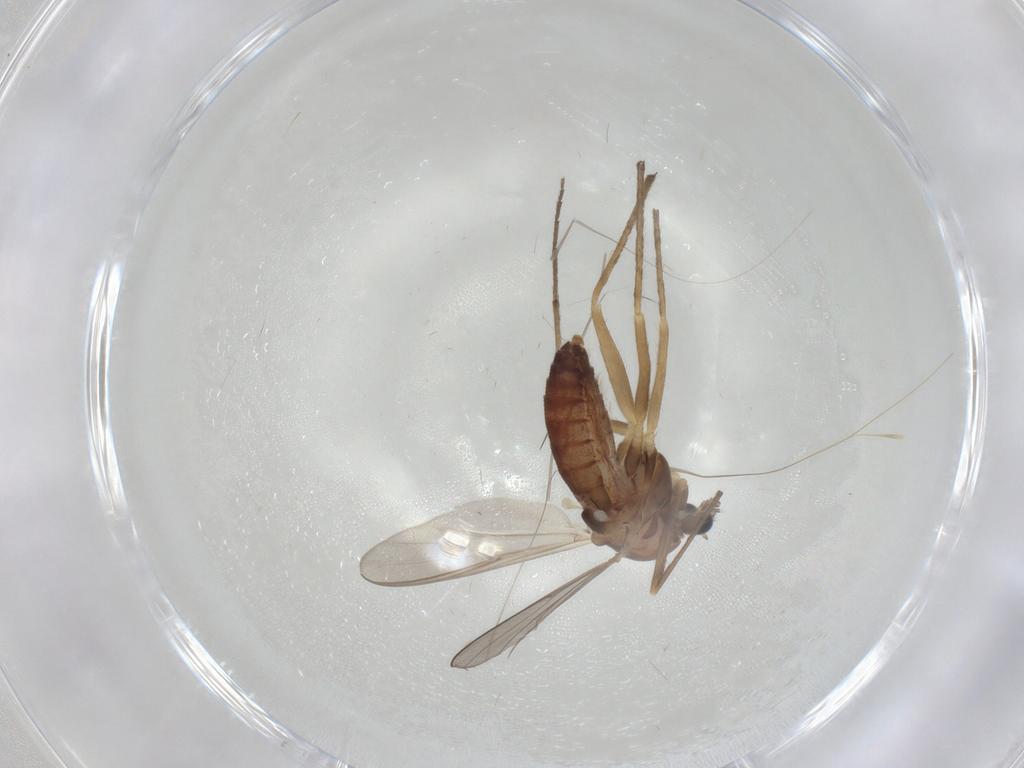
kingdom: Animalia
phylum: Arthropoda
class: Insecta
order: Diptera
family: Chironomidae
